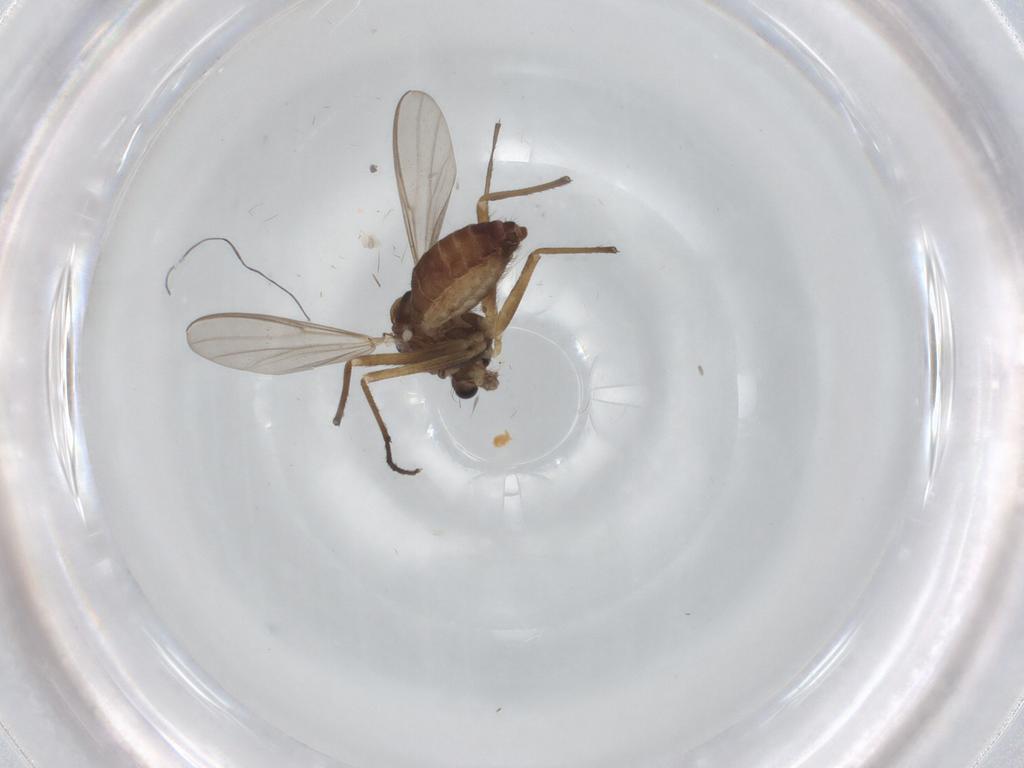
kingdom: Animalia
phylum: Arthropoda
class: Insecta
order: Diptera
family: Chironomidae
